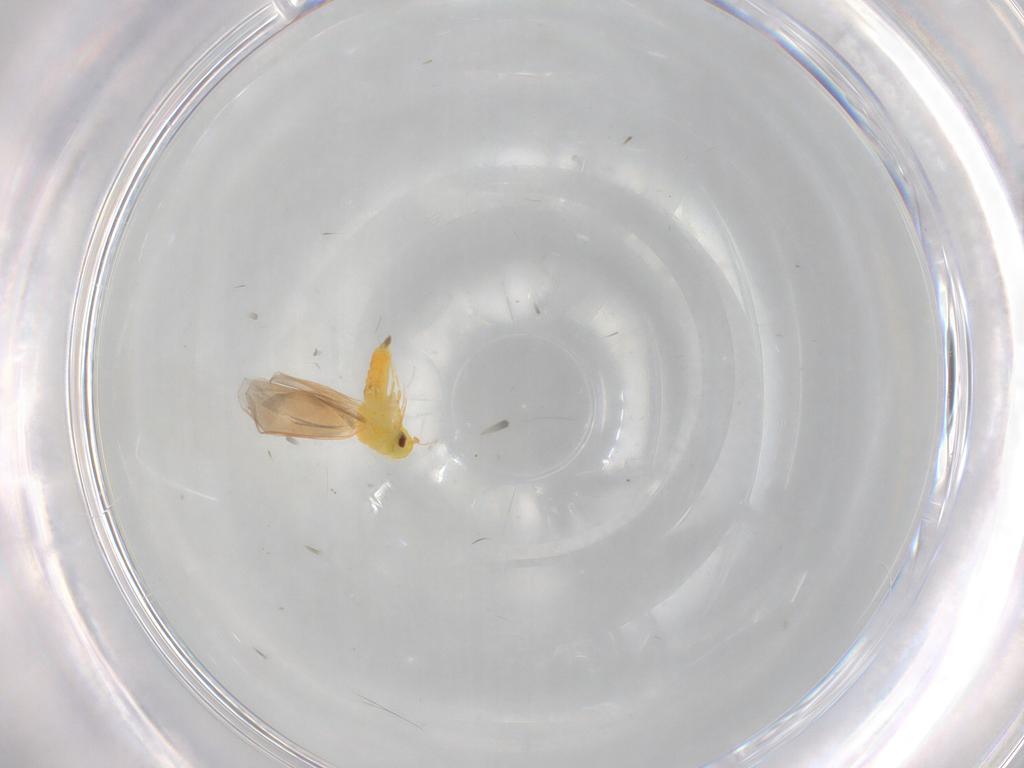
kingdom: Animalia
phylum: Arthropoda
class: Insecta
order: Hemiptera
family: Aleyrodidae
